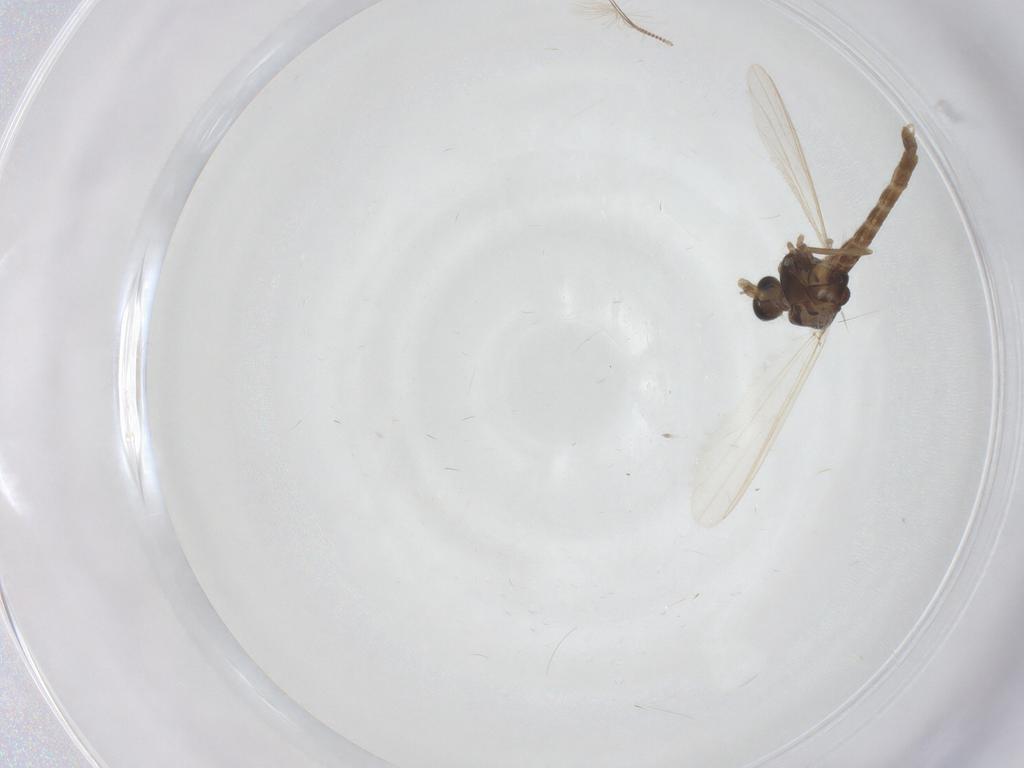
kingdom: Animalia
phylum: Arthropoda
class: Insecta
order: Diptera
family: Chironomidae
